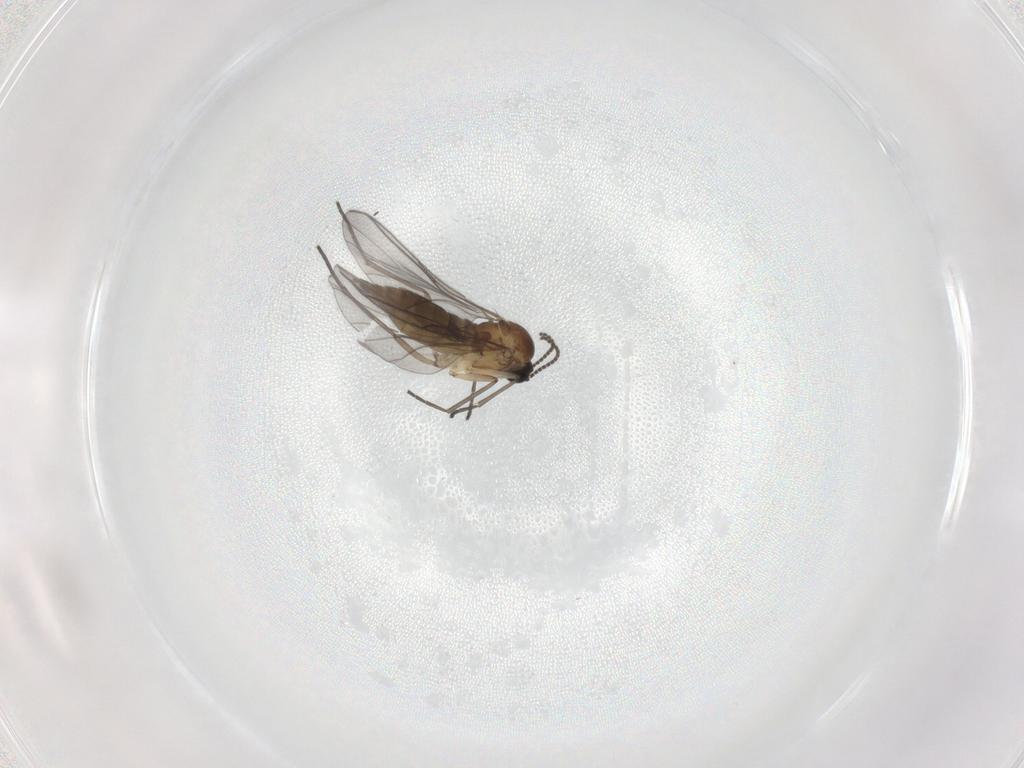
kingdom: Animalia
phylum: Arthropoda
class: Insecta
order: Diptera
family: Sciaridae
